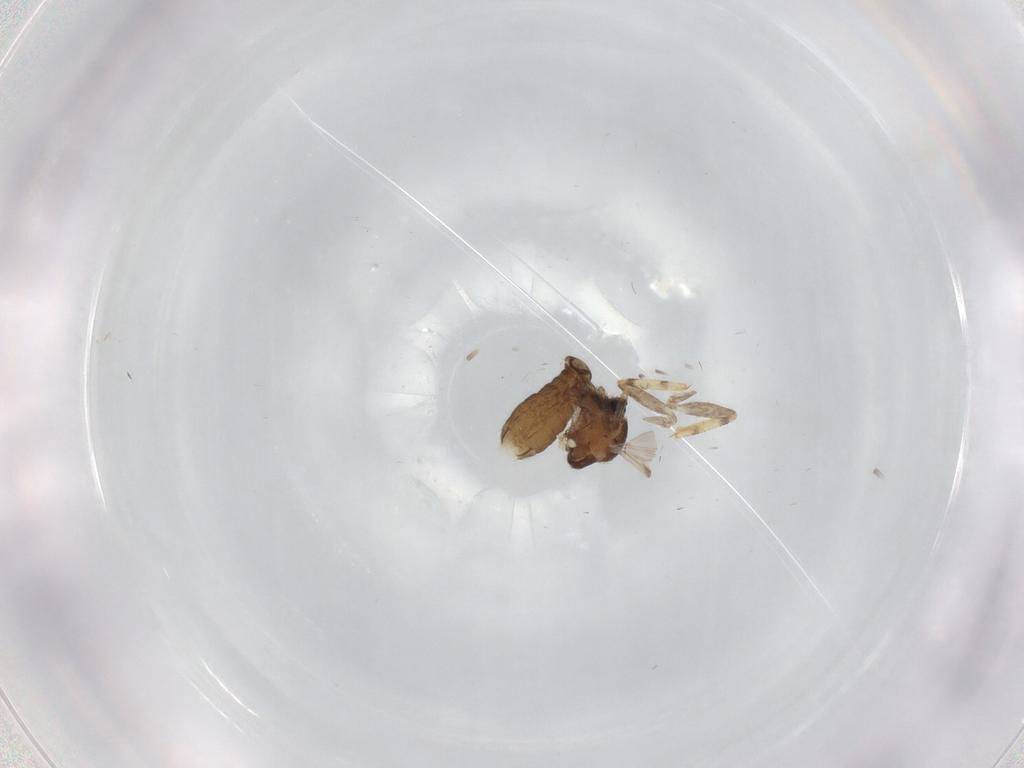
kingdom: Animalia
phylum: Arthropoda
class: Insecta
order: Diptera
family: Ceratopogonidae
